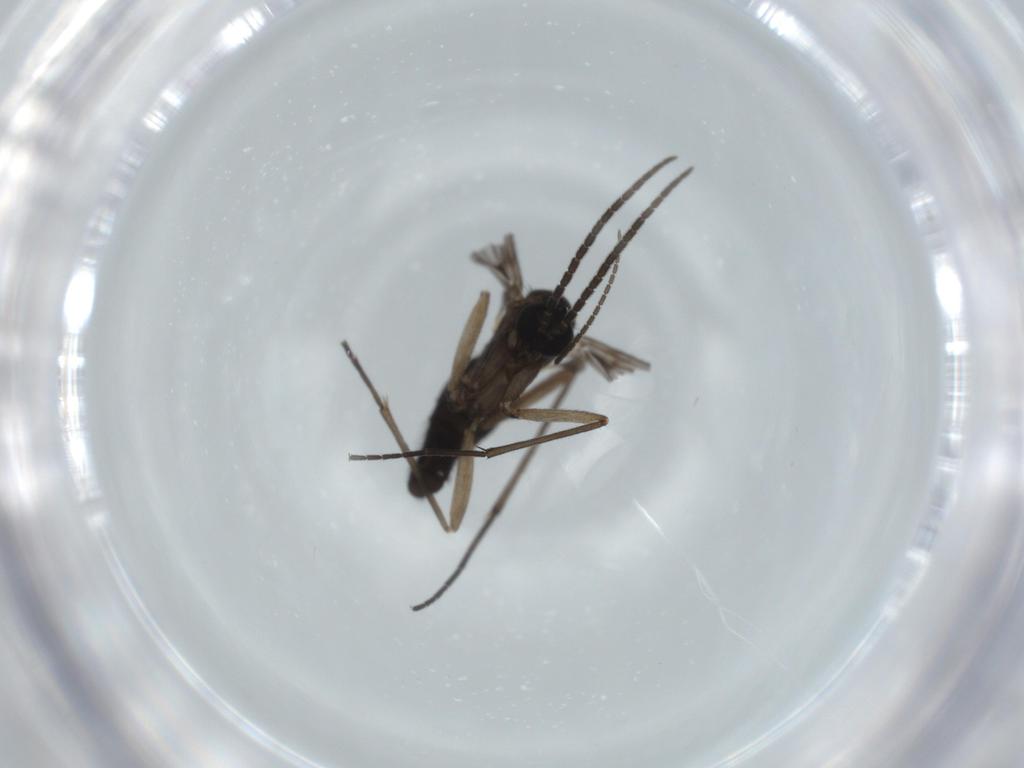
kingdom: Animalia
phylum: Arthropoda
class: Insecta
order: Diptera
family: Sciaridae
